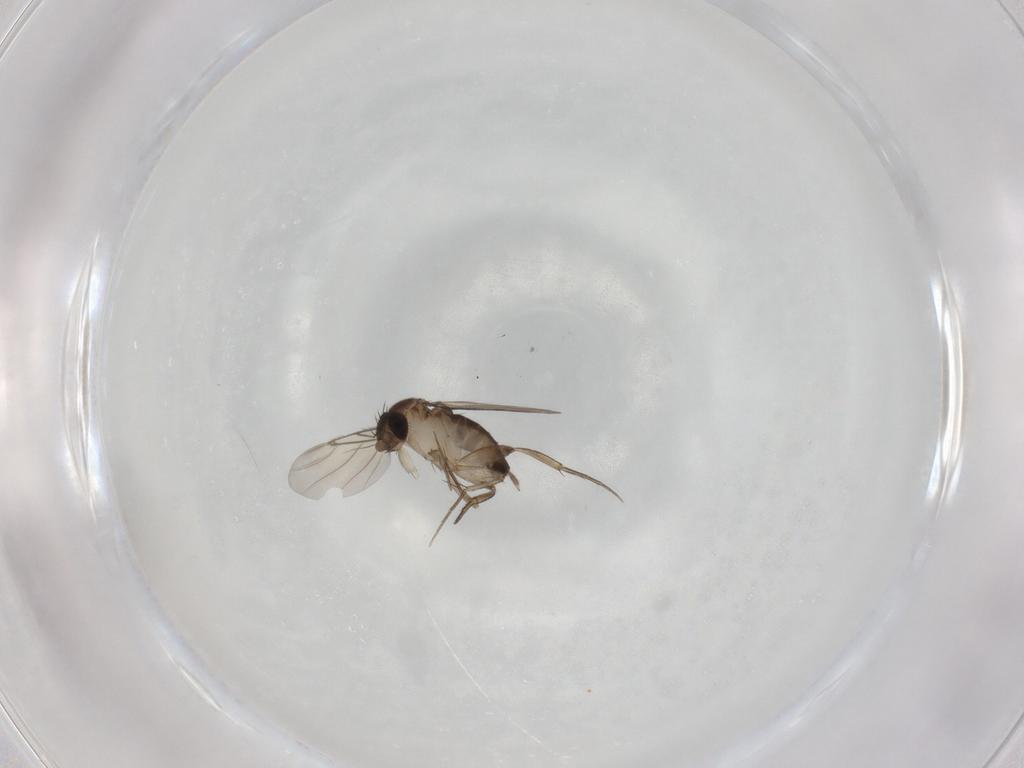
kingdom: Animalia
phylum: Arthropoda
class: Insecta
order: Diptera
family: Phoridae
